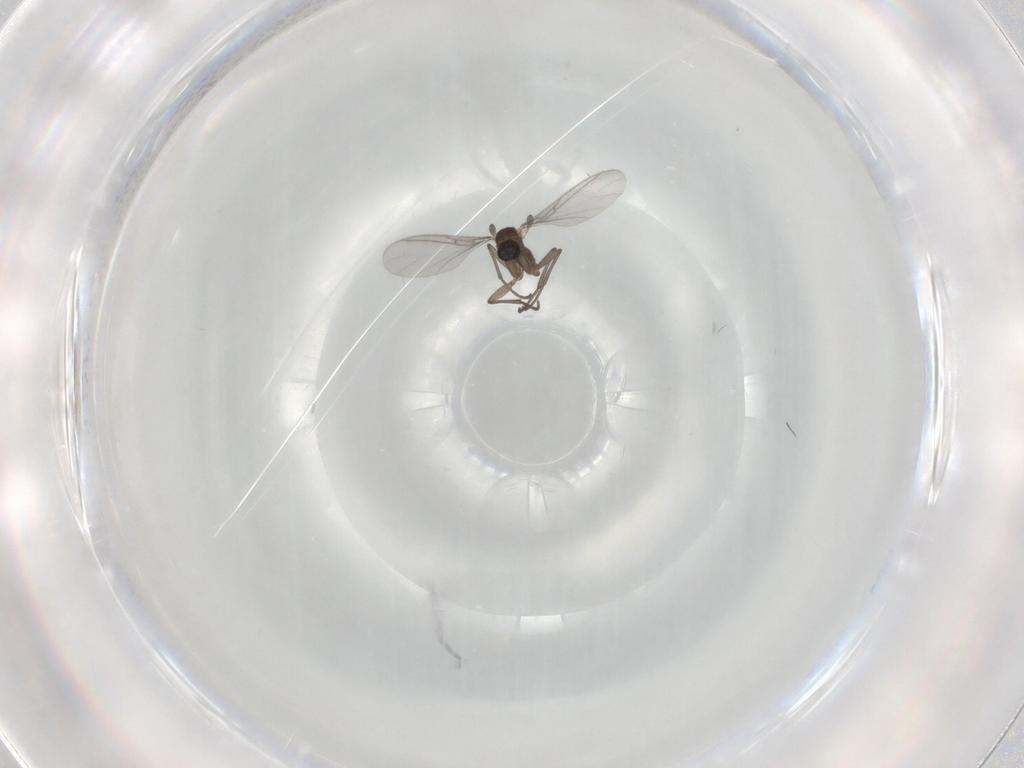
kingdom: Animalia
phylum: Arthropoda
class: Insecta
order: Diptera
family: Sciaridae
